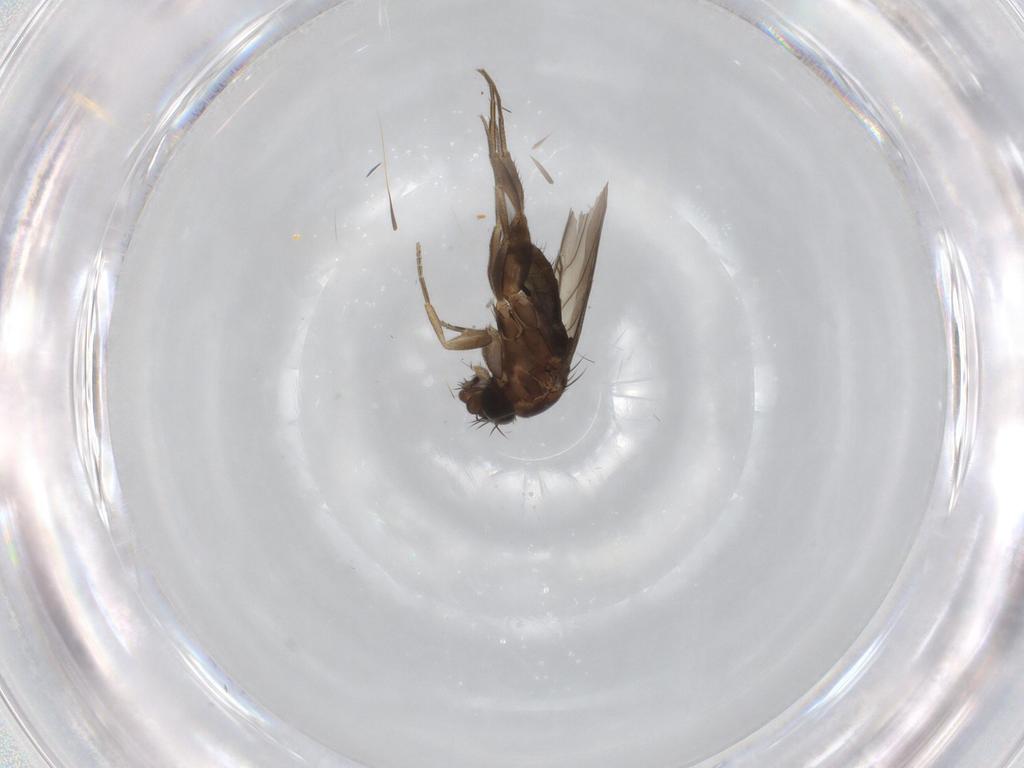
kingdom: Animalia
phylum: Arthropoda
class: Insecta
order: Diptera
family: Phoridae
